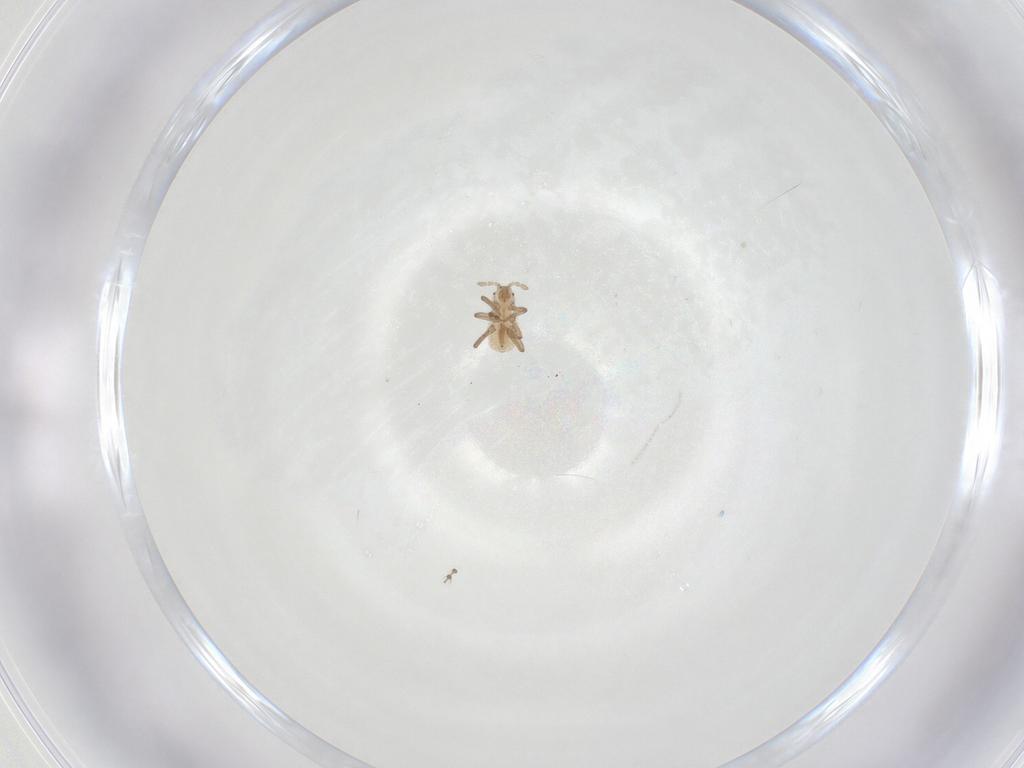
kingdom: Animalia
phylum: Arthropoda
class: Insecta
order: Hemiptera
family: Aphididae
